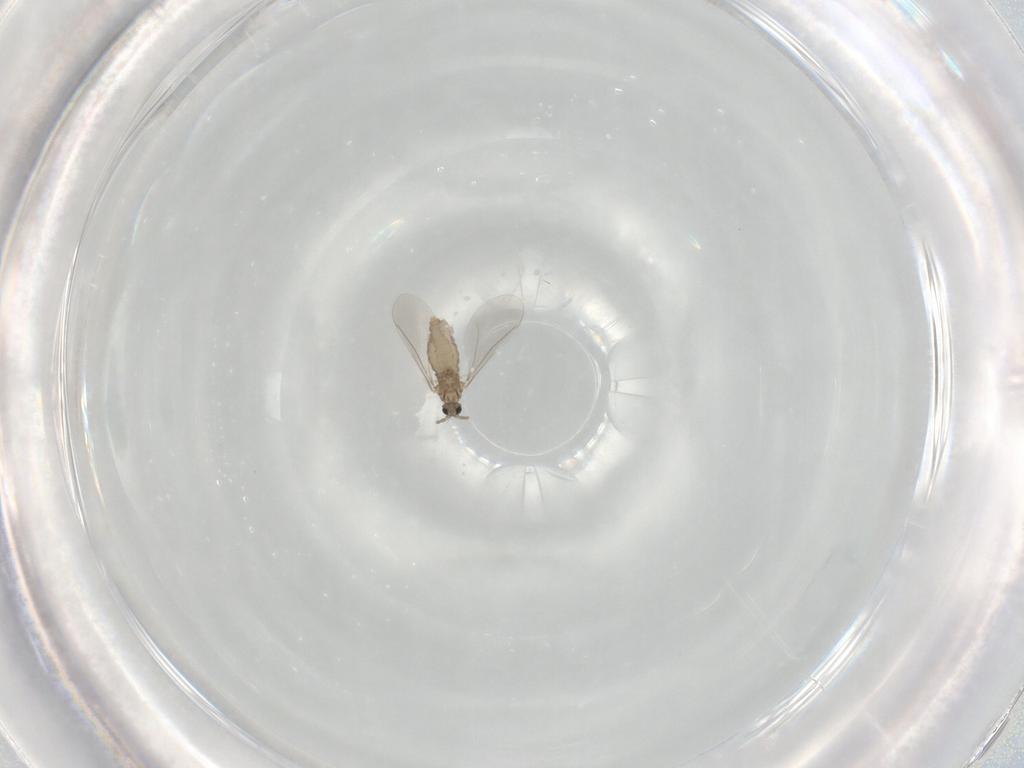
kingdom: Animalia
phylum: Arthropoda
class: Insecta
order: Diptera
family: Cecidomyiidae
